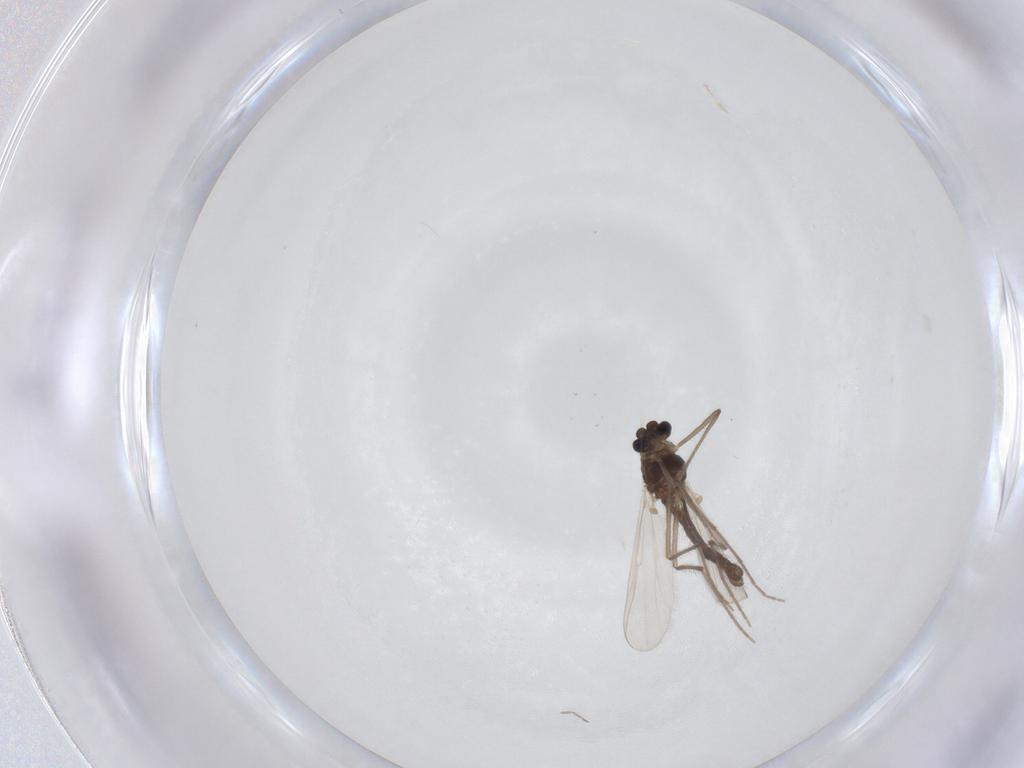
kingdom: Animalia
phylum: Arthropoda
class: Insecta
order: Diptera
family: Chironomidae
